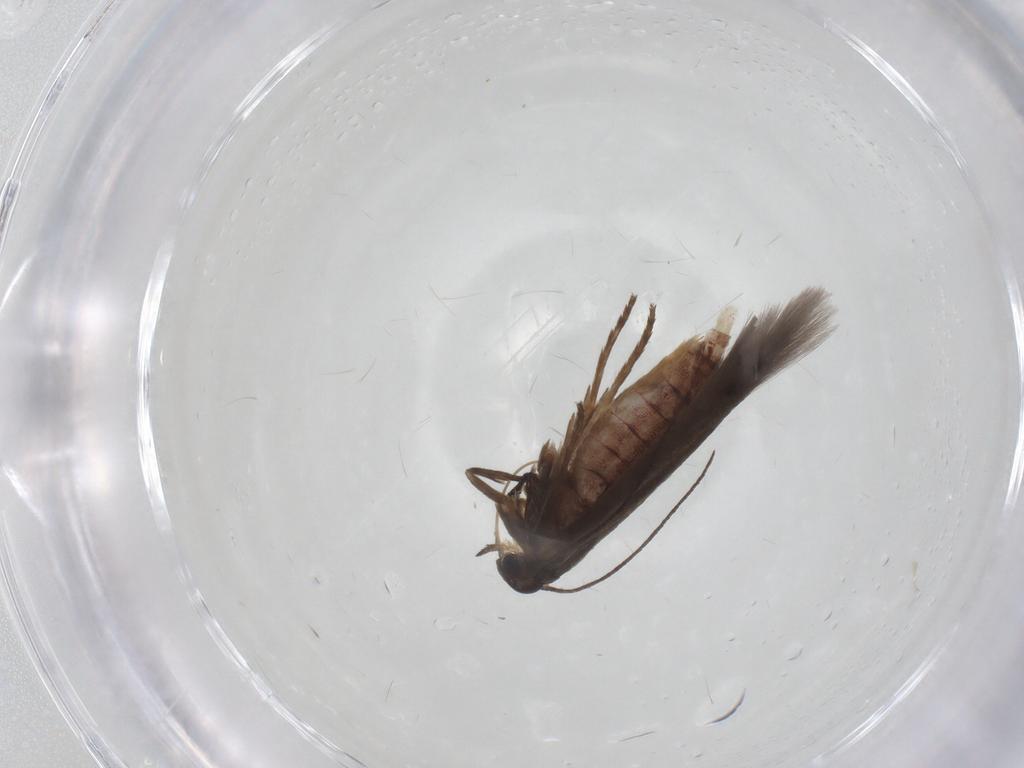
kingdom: Animalia
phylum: Arthropoda
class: Insecta
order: Lepidoptera
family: Scythrididae
